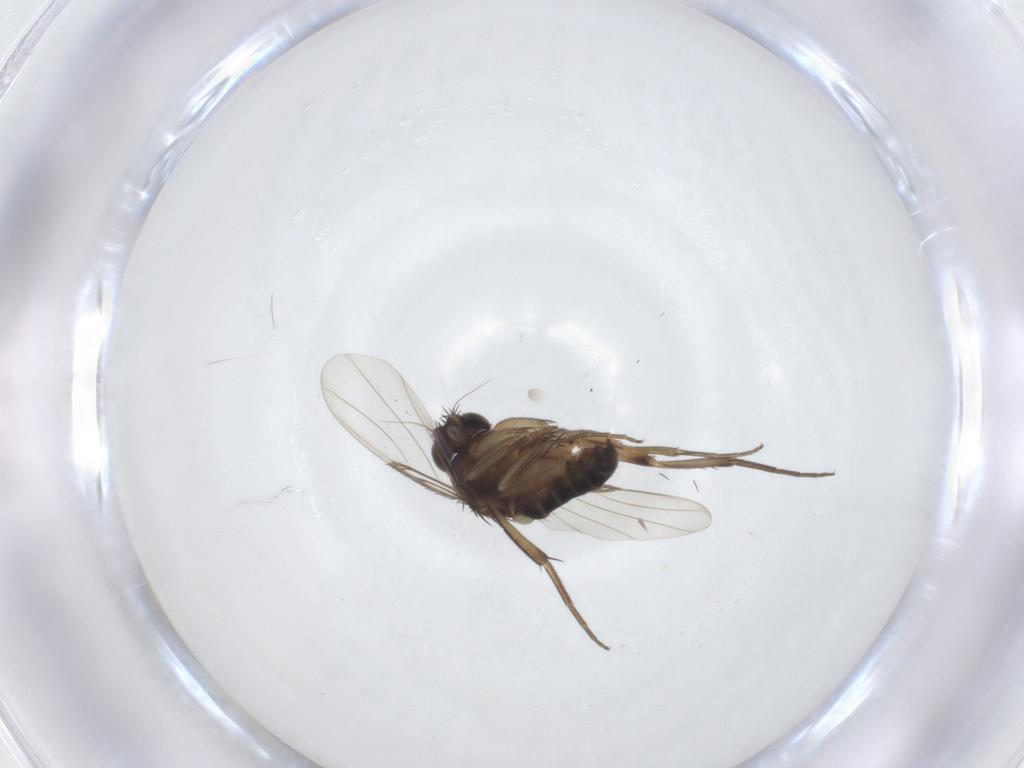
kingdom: Animalia
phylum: Arthropoda
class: Insecta
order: Diptera
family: Phoridae
